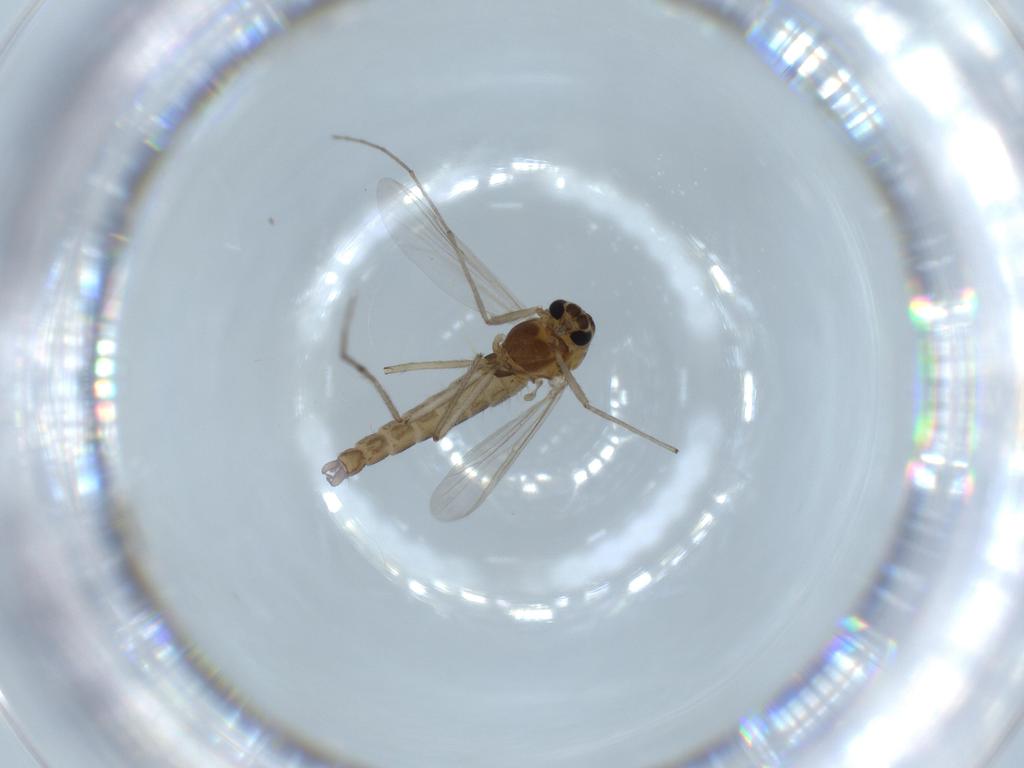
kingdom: Animalia
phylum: Arthropoda
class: Insecta
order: Diptera
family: Chironomidae
